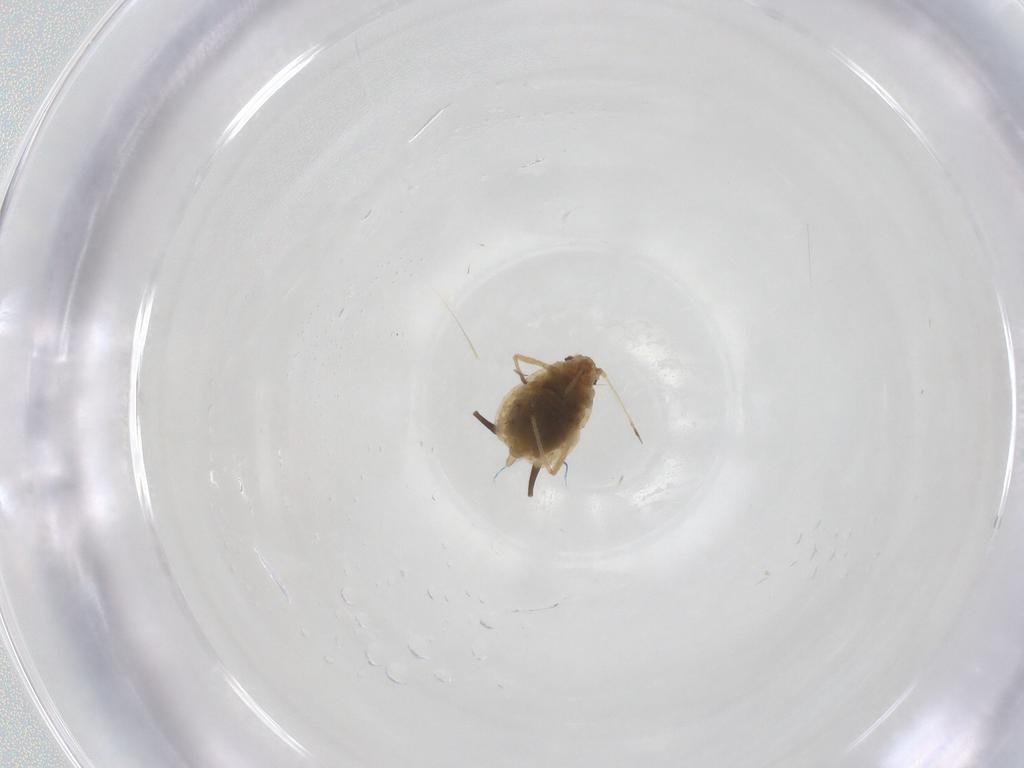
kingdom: Animalia
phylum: Arthropoda
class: Insecta
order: Hemiptera
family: Aphididae
